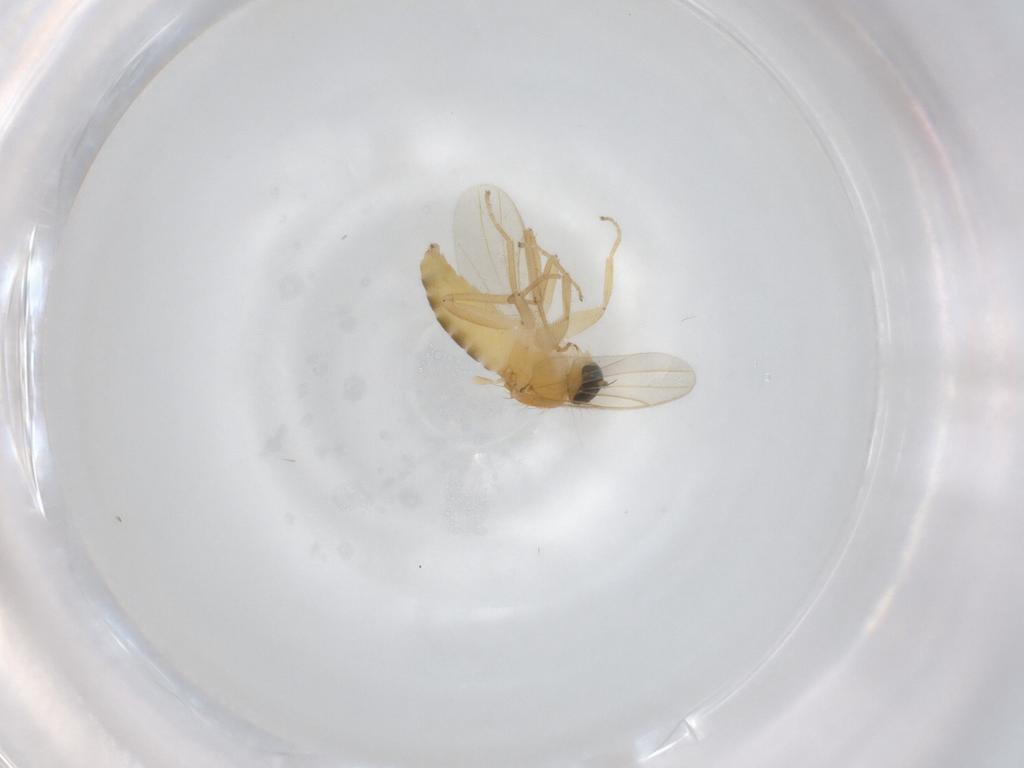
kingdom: Animalia
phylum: Arthropoda
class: Insecta
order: Diptera
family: Hybotidae
